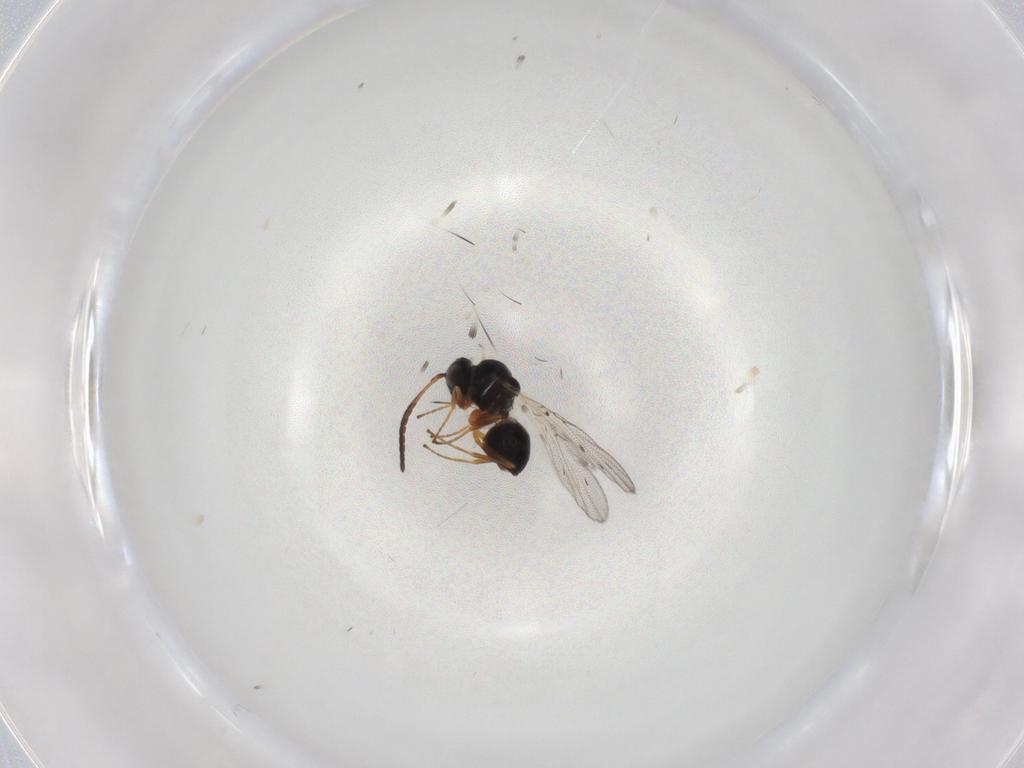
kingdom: Animalia
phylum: Arthropoda
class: Insecta
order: Hymenoptera
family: Figitidae
